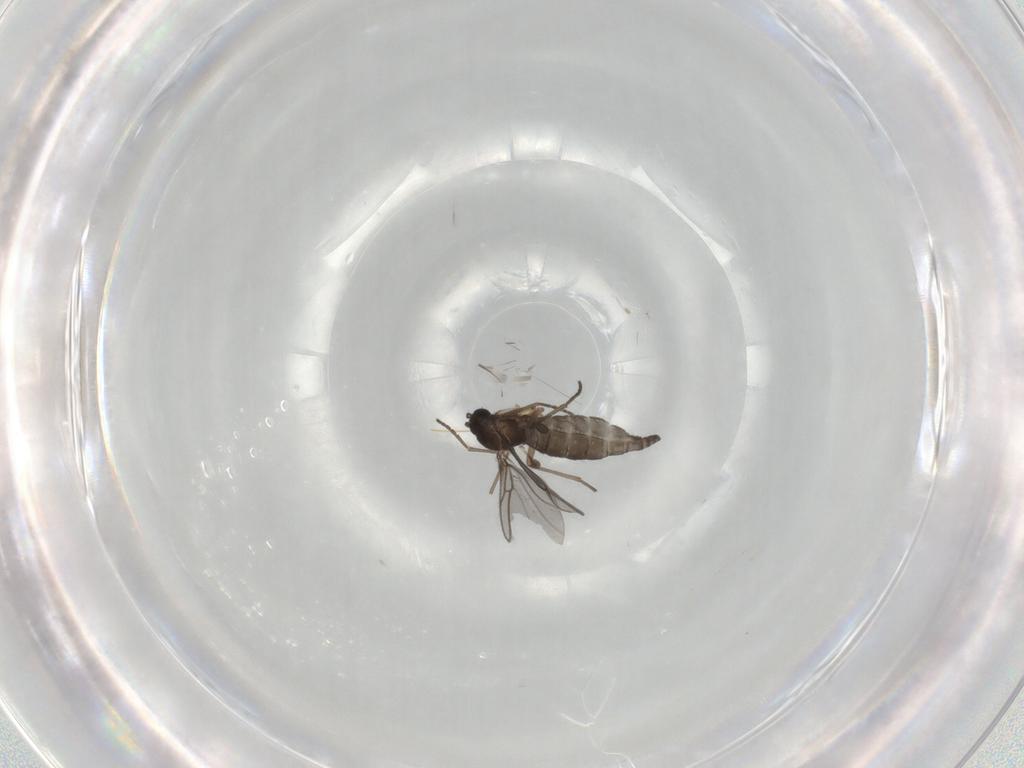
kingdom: Animalia
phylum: Arthropoda
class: Insecta
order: Diptera
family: Sciaridae
